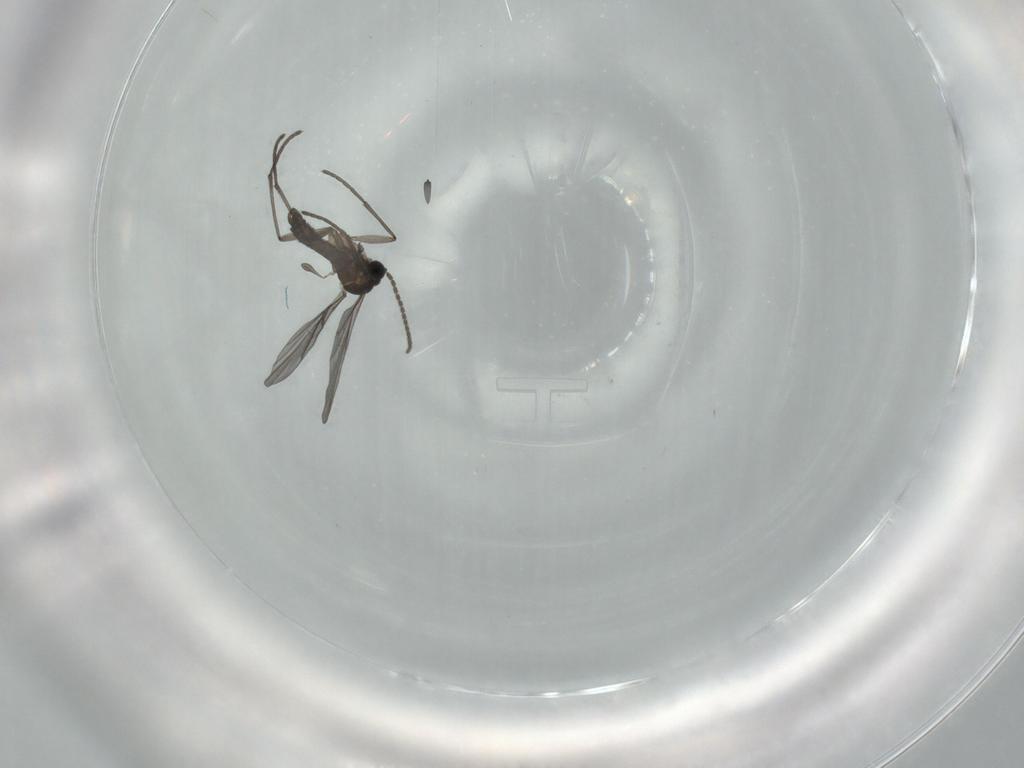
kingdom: Animalia
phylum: Arthropoda
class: Insecta
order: Diptera
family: Sciaridae
